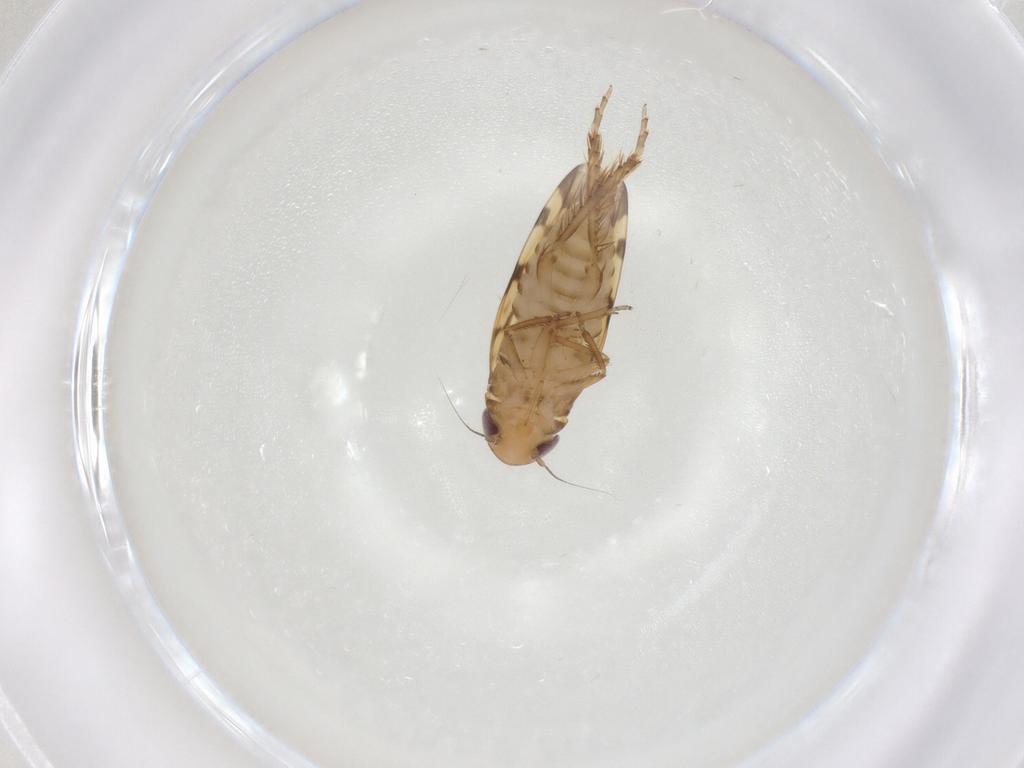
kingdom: Animalia
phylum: Arthropoda
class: Insecta
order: Hemiptera
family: Cicadellidae
